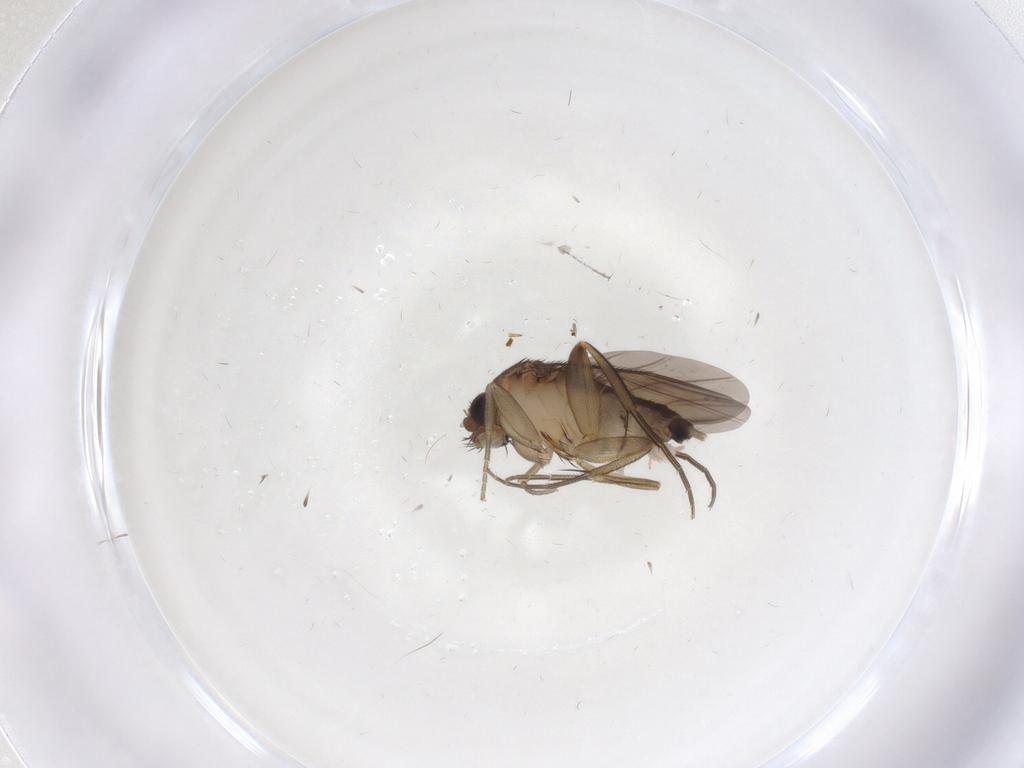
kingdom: Animalia
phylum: Arthropoda
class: Insecta
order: Diptera
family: Phoridae
